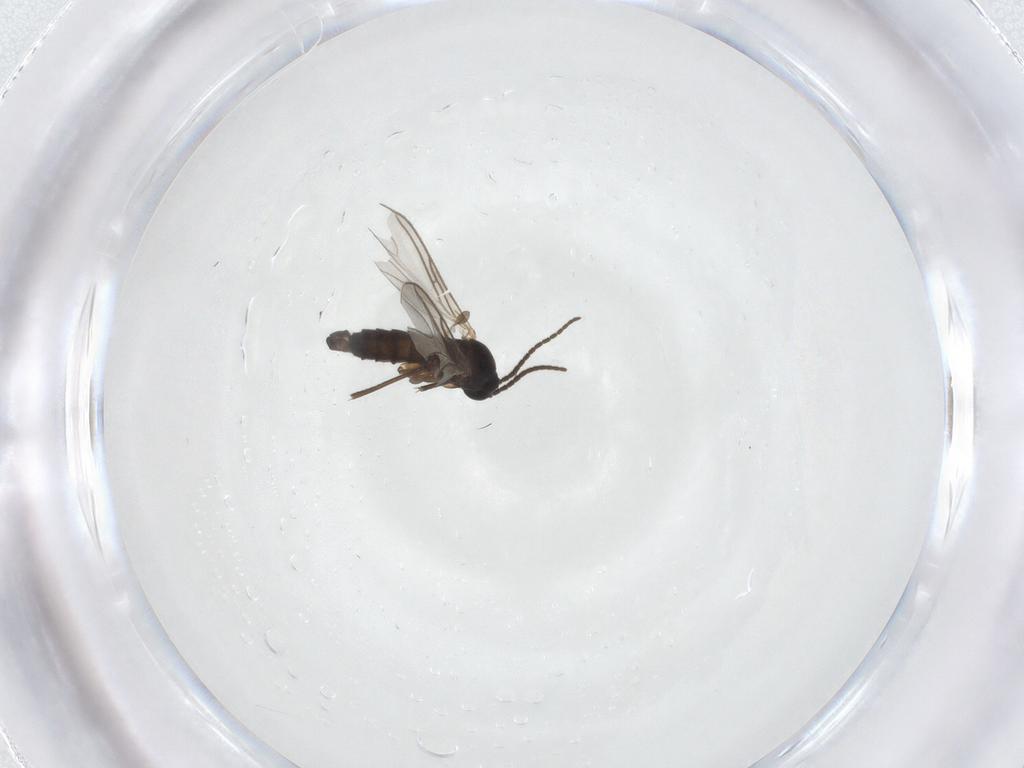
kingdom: Animalia
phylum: Arthropoda
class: Insecta
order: Diptera
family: Sciaridae
